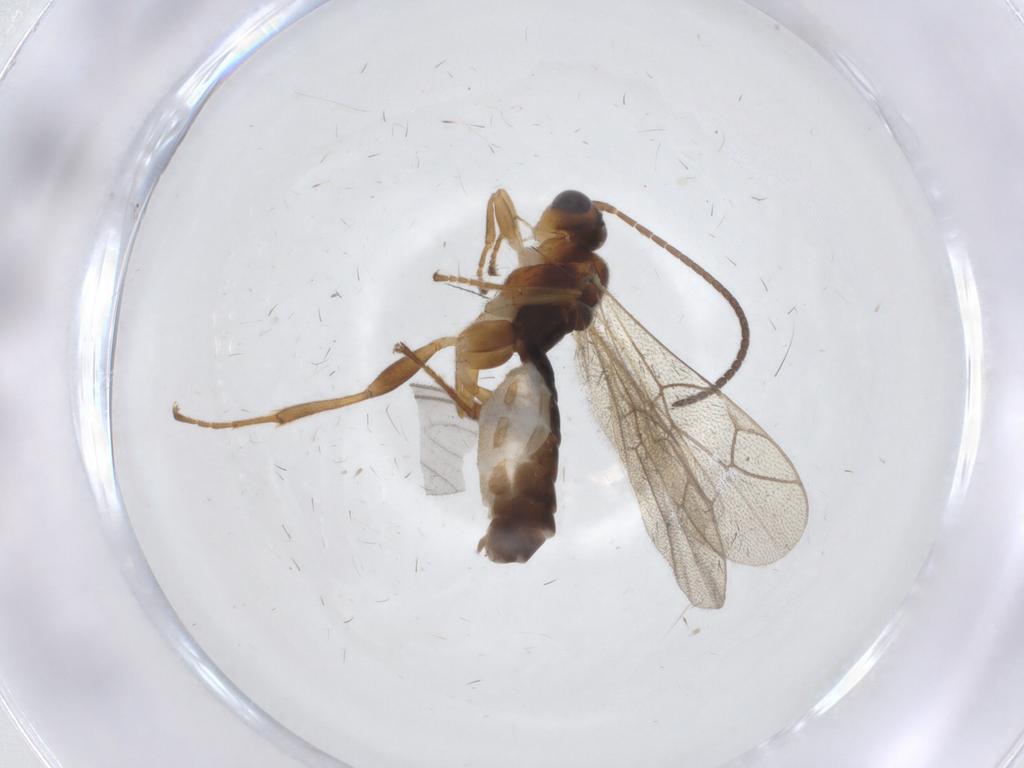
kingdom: Animalia
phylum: Arthropoda
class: Insecta
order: Hymenoptera
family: Ichneumonidae
